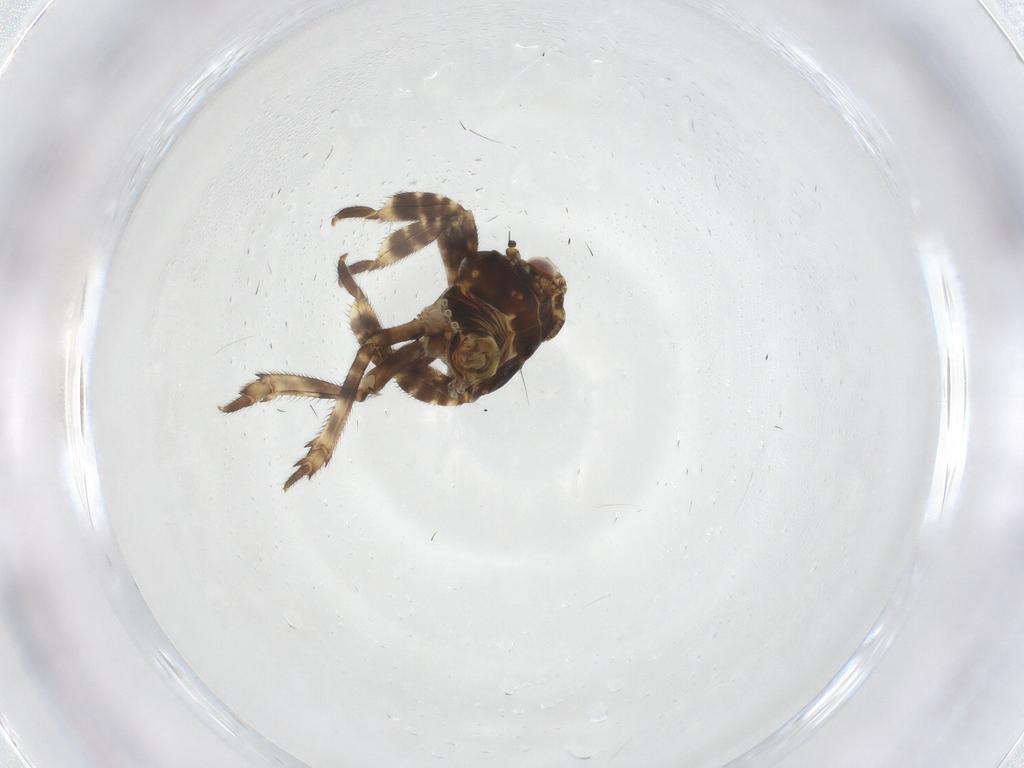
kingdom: Animalia
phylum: Arthropoda
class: Insecta
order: Hemiptera
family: Eurybrachidae
